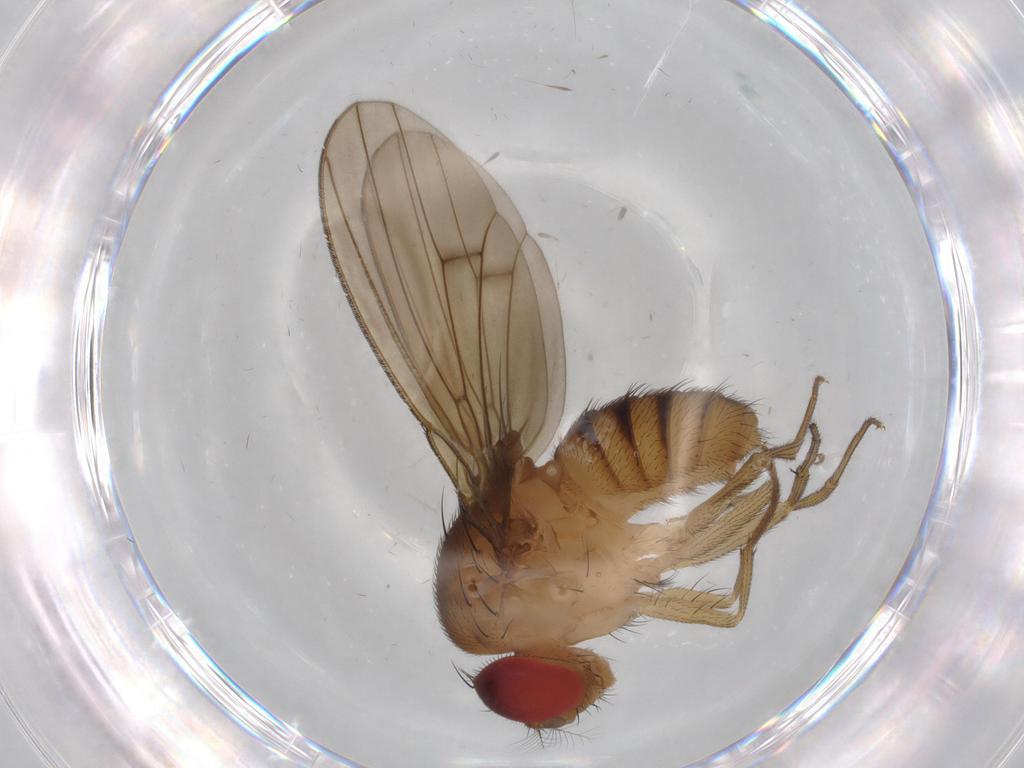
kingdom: Animalia
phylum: Arthropoda
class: Insecta
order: Diptera
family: Drosophilidae
